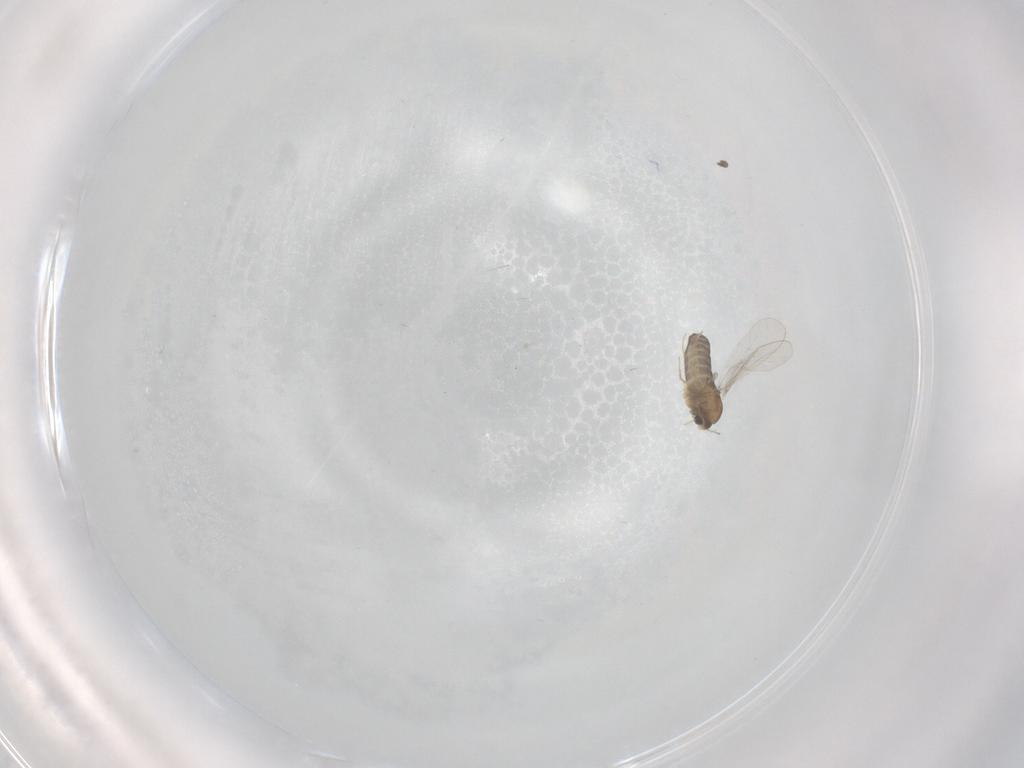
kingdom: Animalia
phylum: Arthropoda
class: Insecta
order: Diptera
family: Chironomidae
